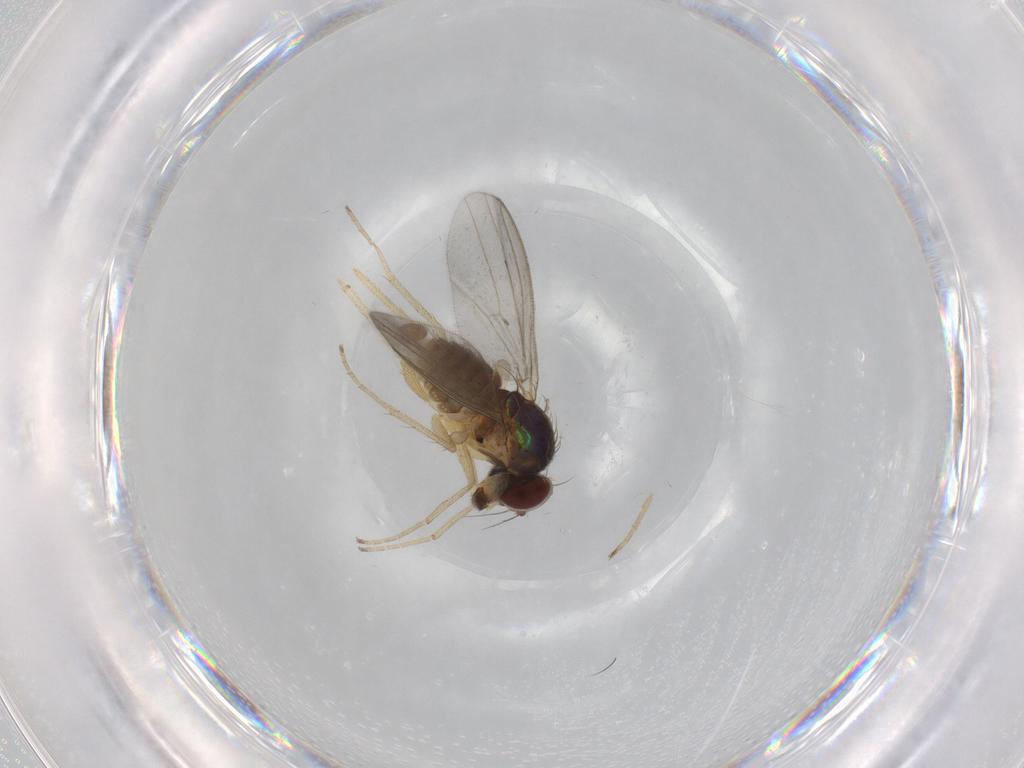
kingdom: Animalia
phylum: Arthropoda
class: Insecta
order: Diptera
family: Dolichopodidae
